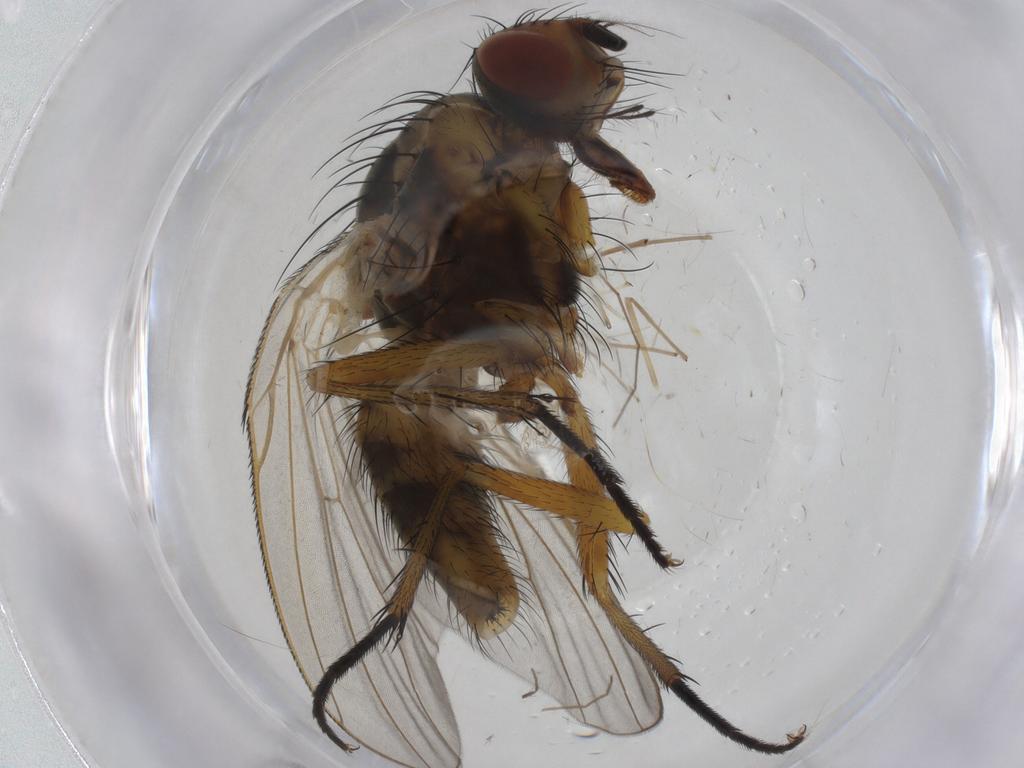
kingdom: Animalia
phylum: Arthropoda
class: Insecta
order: Diptera
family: Anthomyiidae
